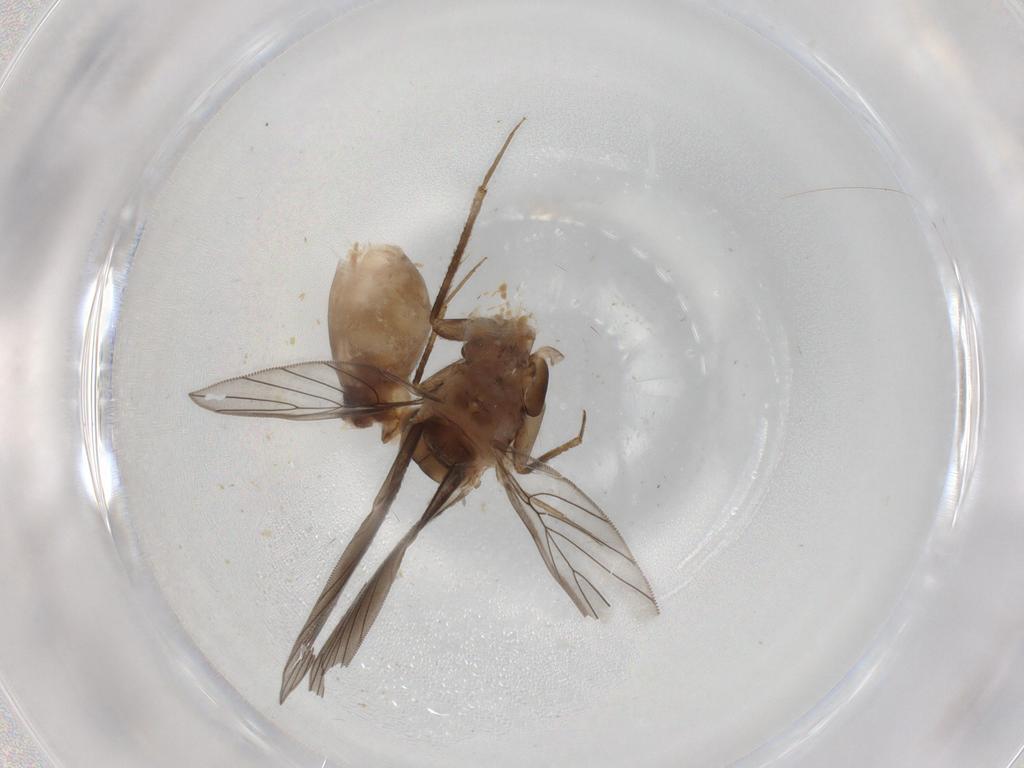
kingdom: Animalia
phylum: Arthropoda
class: Insecta
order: Psocodea
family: Lepidopsocidae
